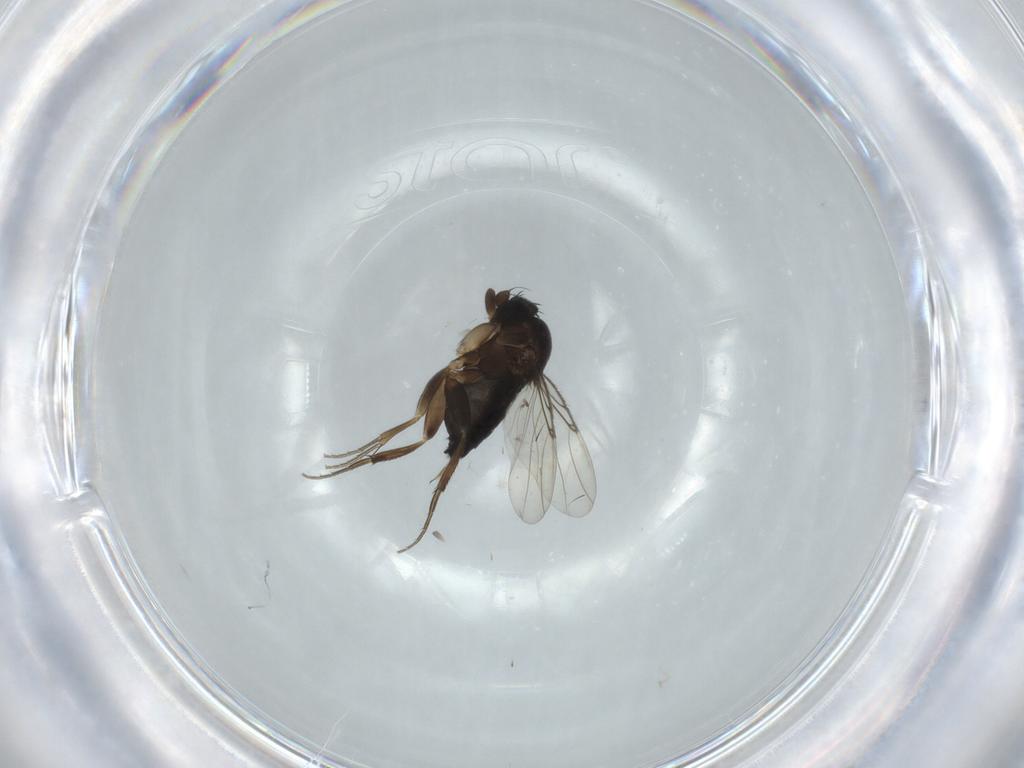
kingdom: Animalia
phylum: Arthropoda
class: Insecta
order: Diptera
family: Phoridae
